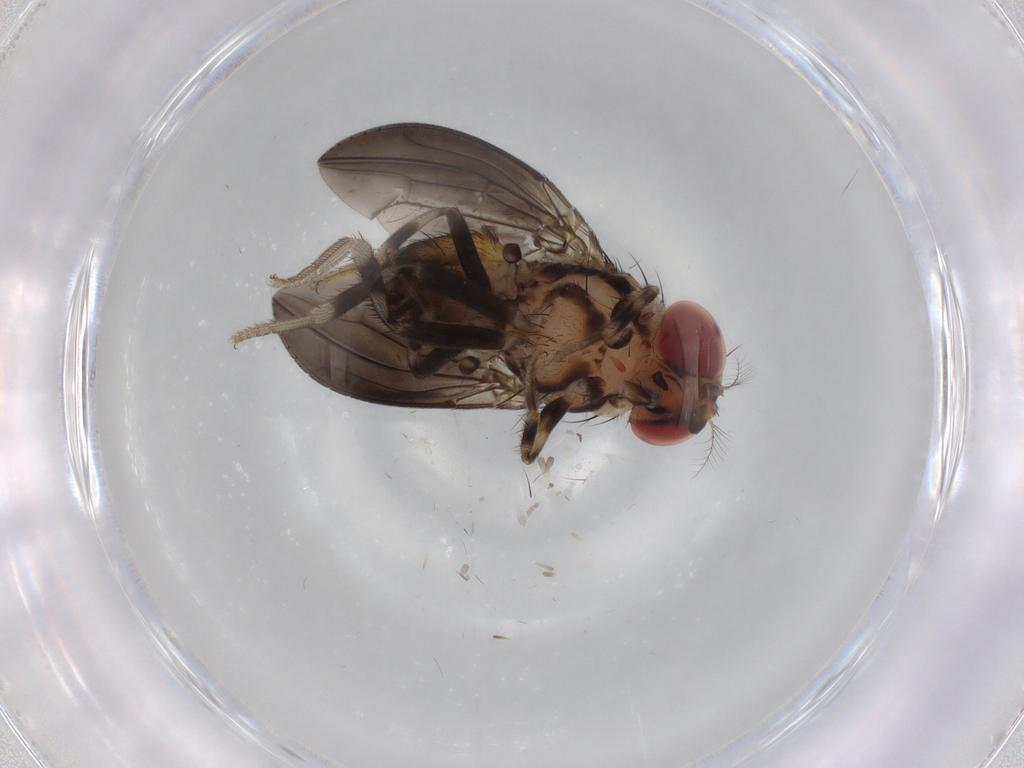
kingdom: Animalia
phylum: Arthropoda
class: Insecta
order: Diptera
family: Drosophilidae
